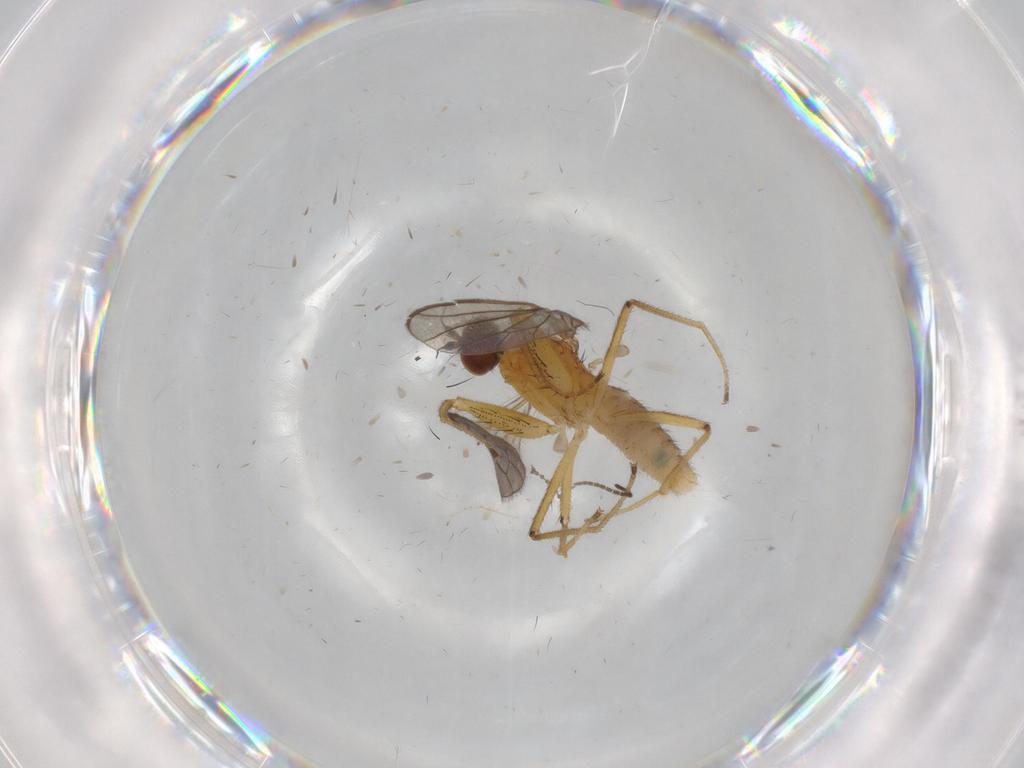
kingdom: Animalia
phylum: Arthropoda
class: Insecta
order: Diptera
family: Empididae
